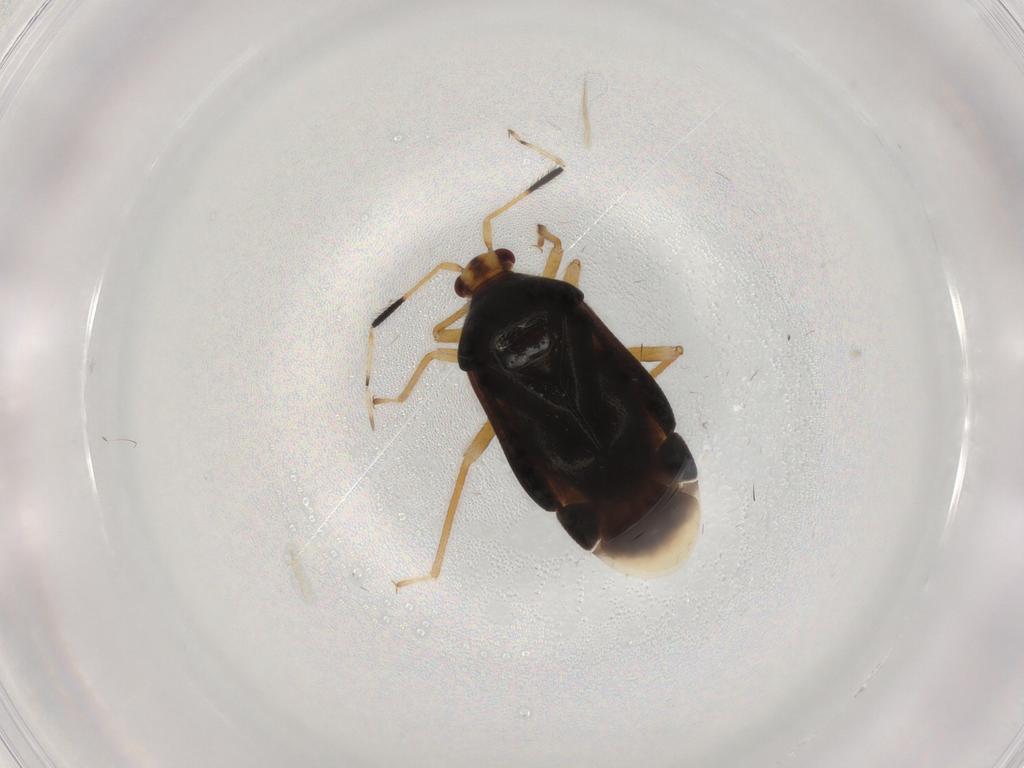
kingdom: Animalia
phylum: Arthropoda
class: Insecta
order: Hemiptera
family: Miridae
